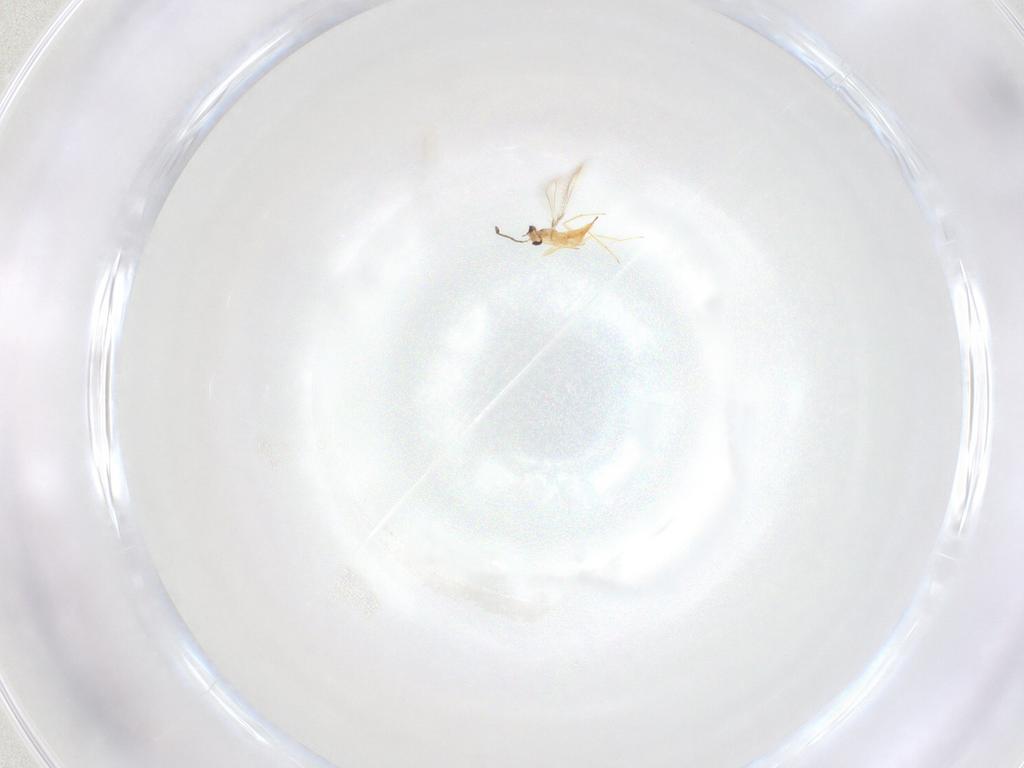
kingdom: Animalia
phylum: Arthropoda
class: Insecta
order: Hymenoptera
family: Mymaridae
